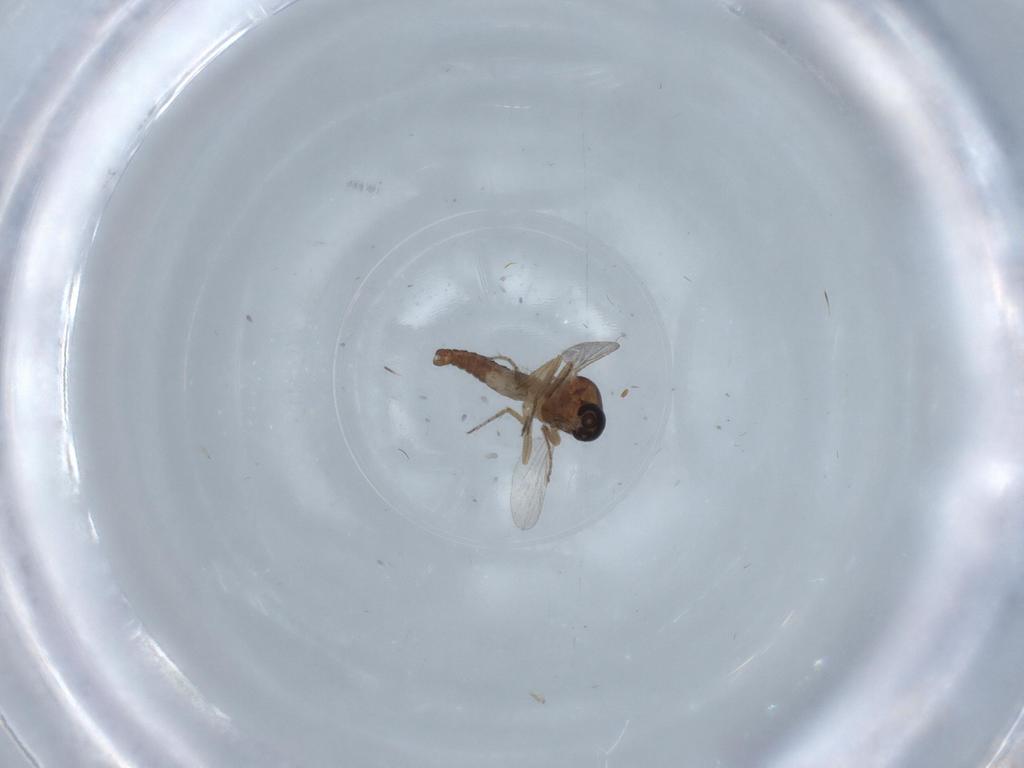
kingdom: Animalia
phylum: Arthropoda
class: Insecta
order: Diptera
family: Ceratopogonidae
